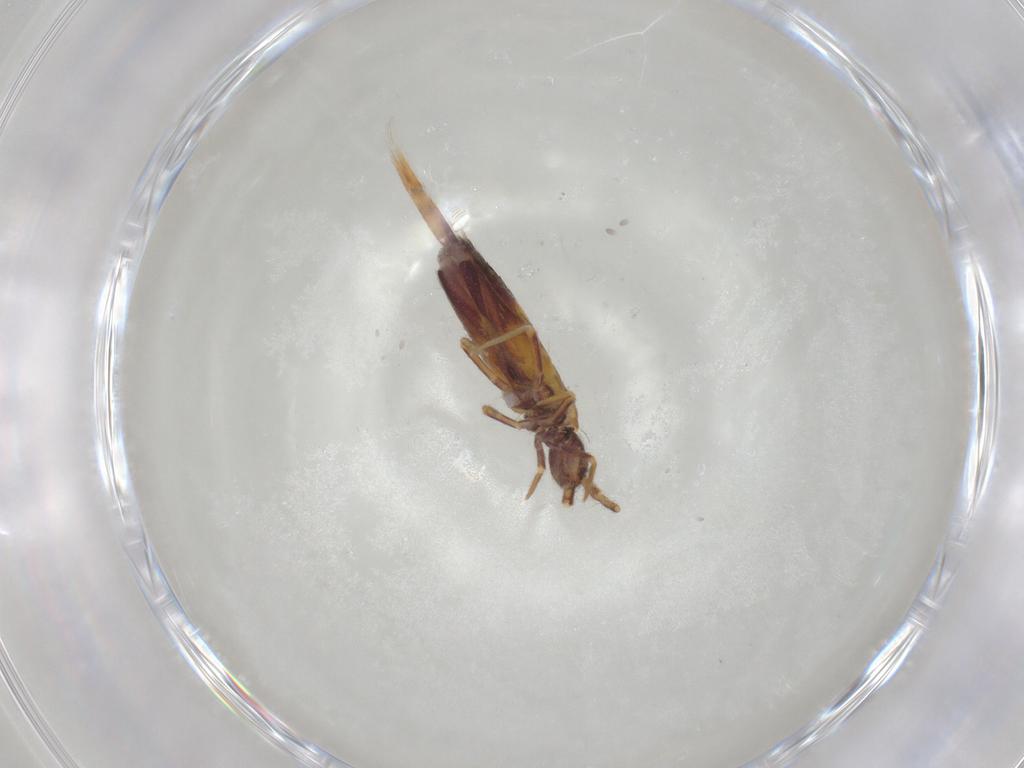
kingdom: Animalia
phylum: Arthropoda
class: Collembola
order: Entomobryomorpha
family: Entomobryidae
